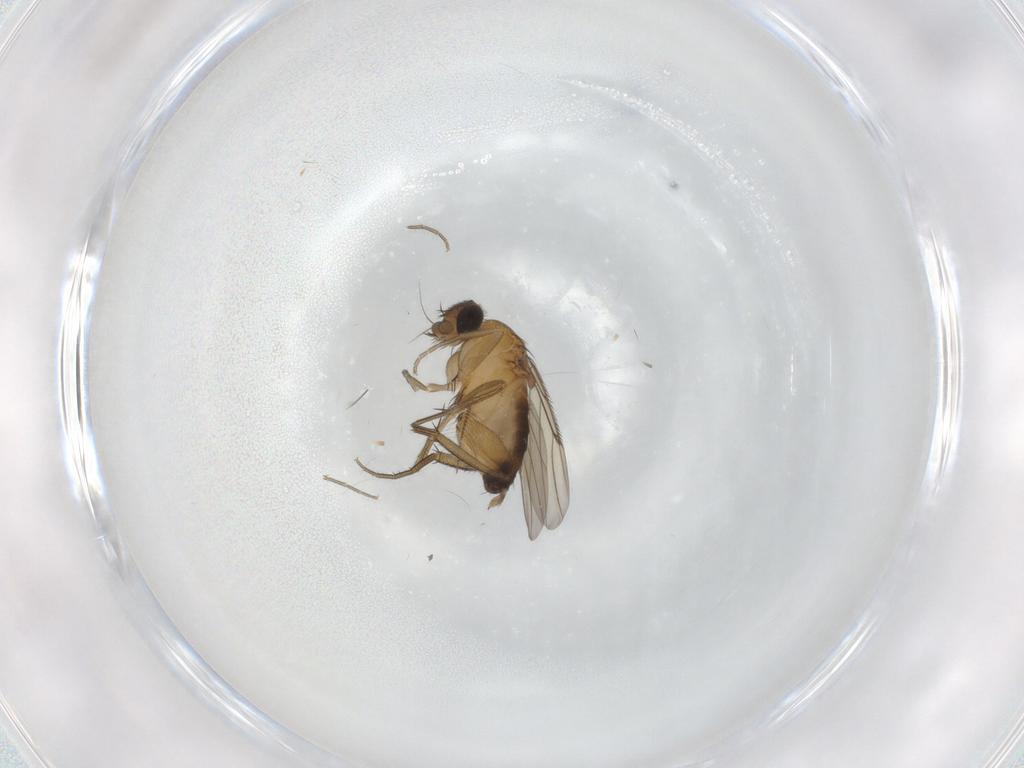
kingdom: Animalia
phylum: Arthropoda
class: Insecta
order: Diptera
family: Phoridae
